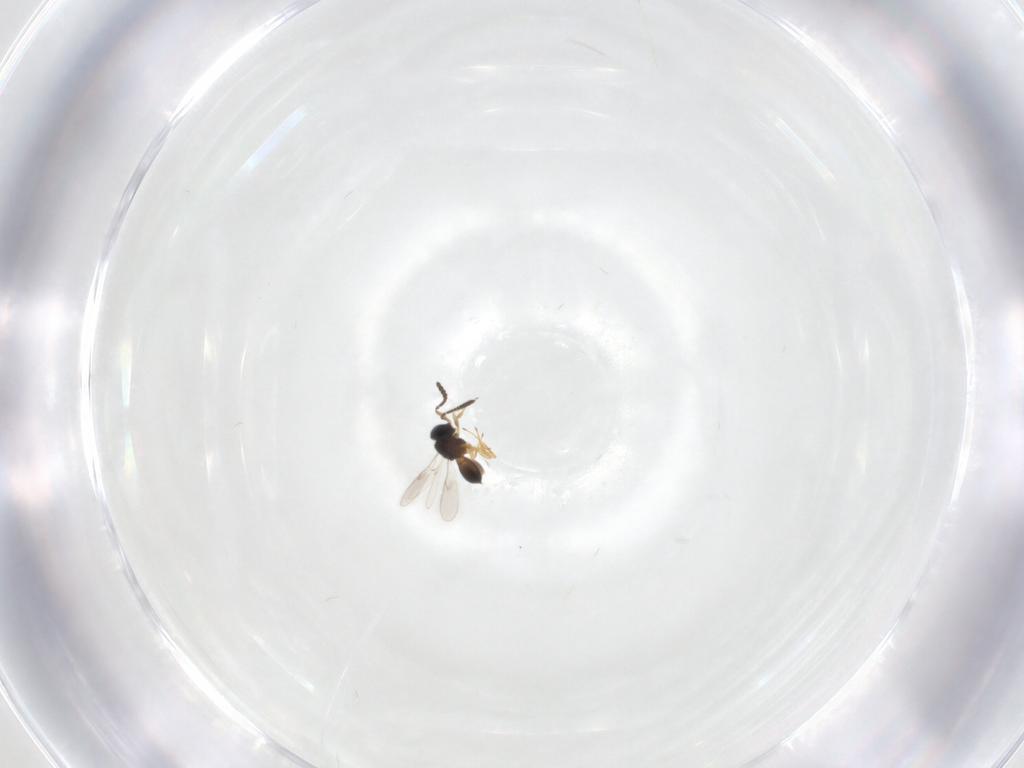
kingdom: Animalia
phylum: Arthropoda
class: Insecta
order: Hymenoptera
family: Scelionidae
